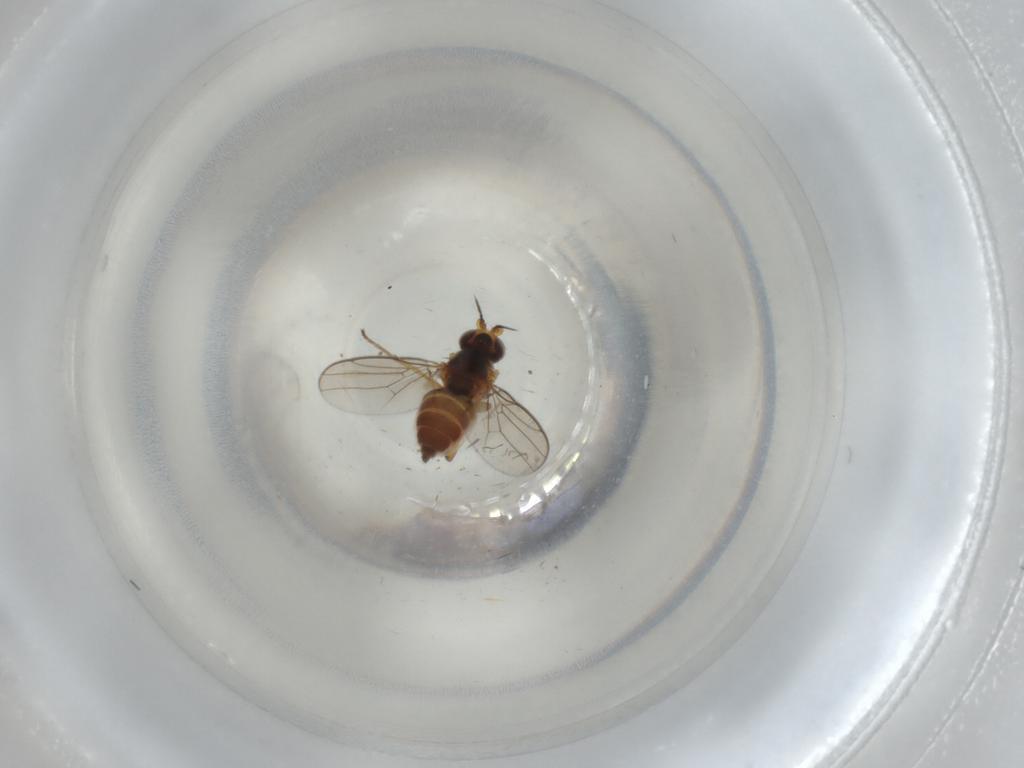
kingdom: Animalia
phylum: Arthropoda
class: Insecta
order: Diptera
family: Chloropidae
